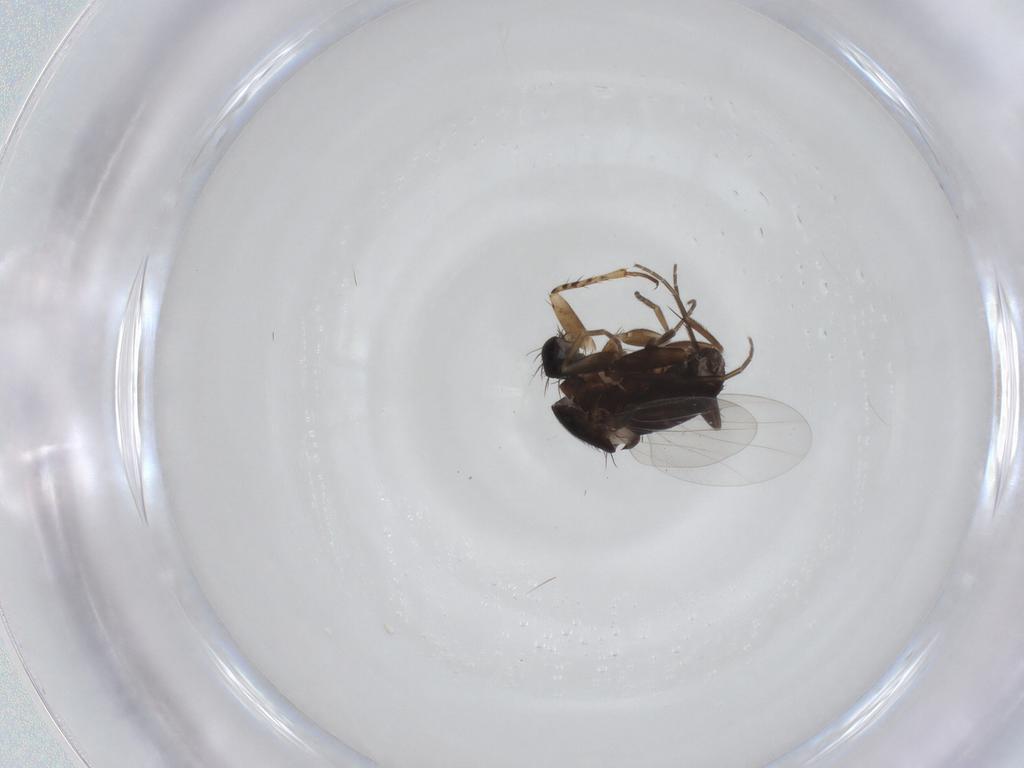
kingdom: Animalia
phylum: Arthropoda
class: Insecta
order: Diptera
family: Phoridae
